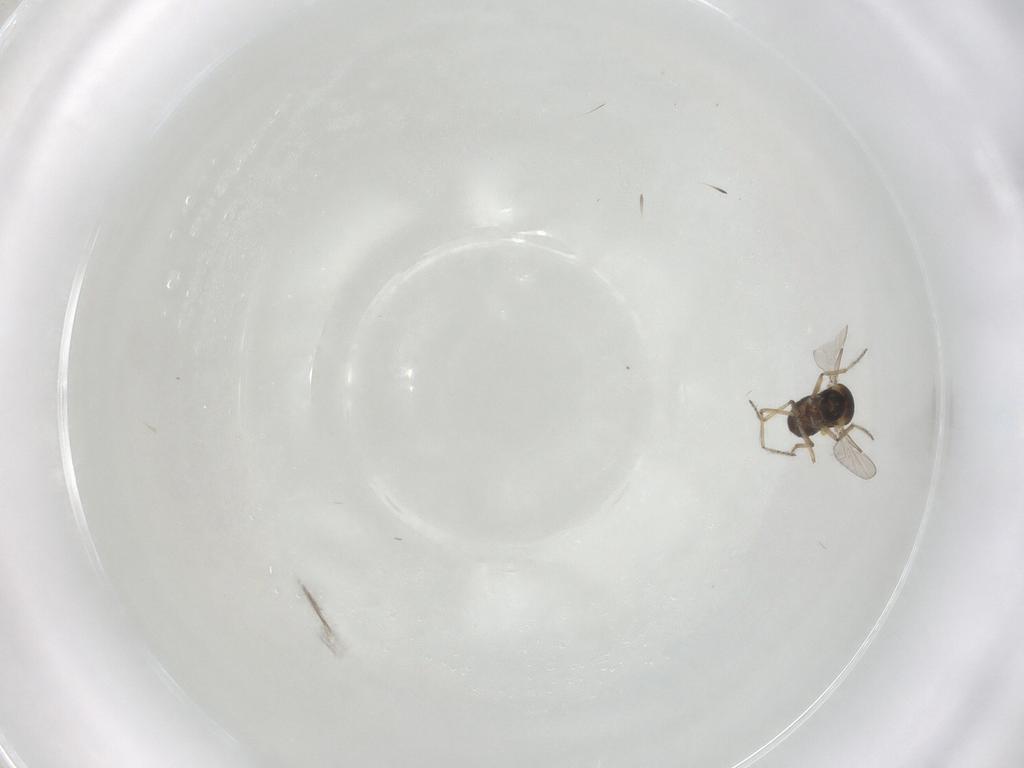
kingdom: Animalia
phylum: Arthropoda
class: Insecta
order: Diptera
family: Ceratopogonidae
